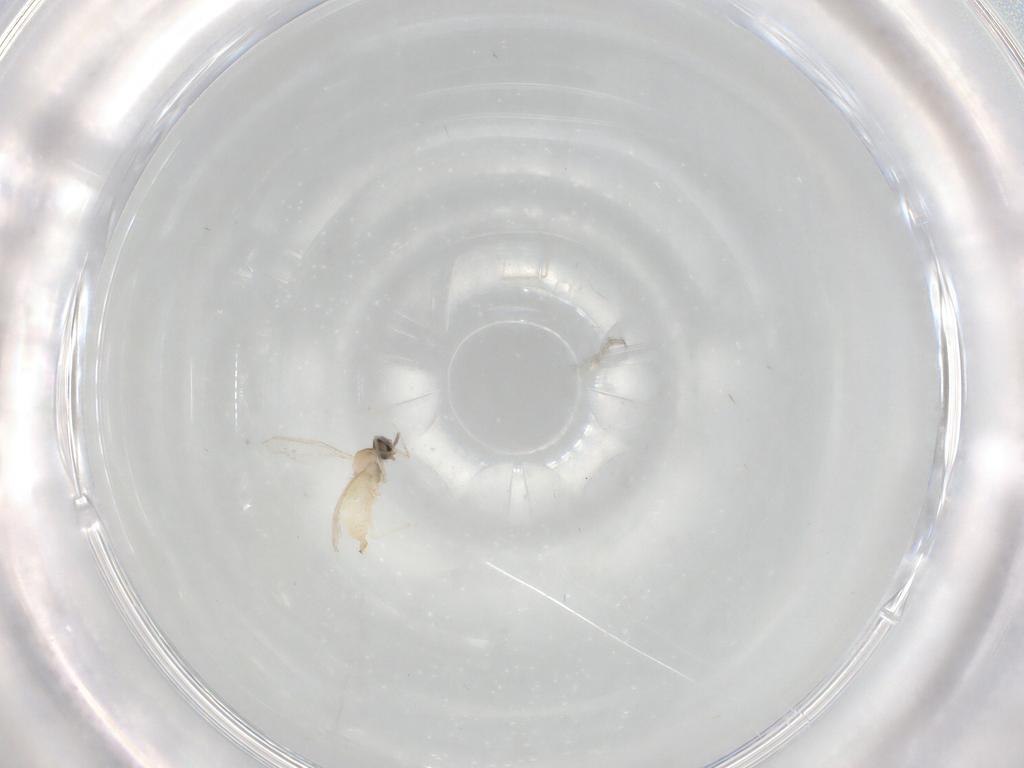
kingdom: Animalia
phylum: Arthropoda
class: Insecta
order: Diptera
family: Ceratopogonidae
